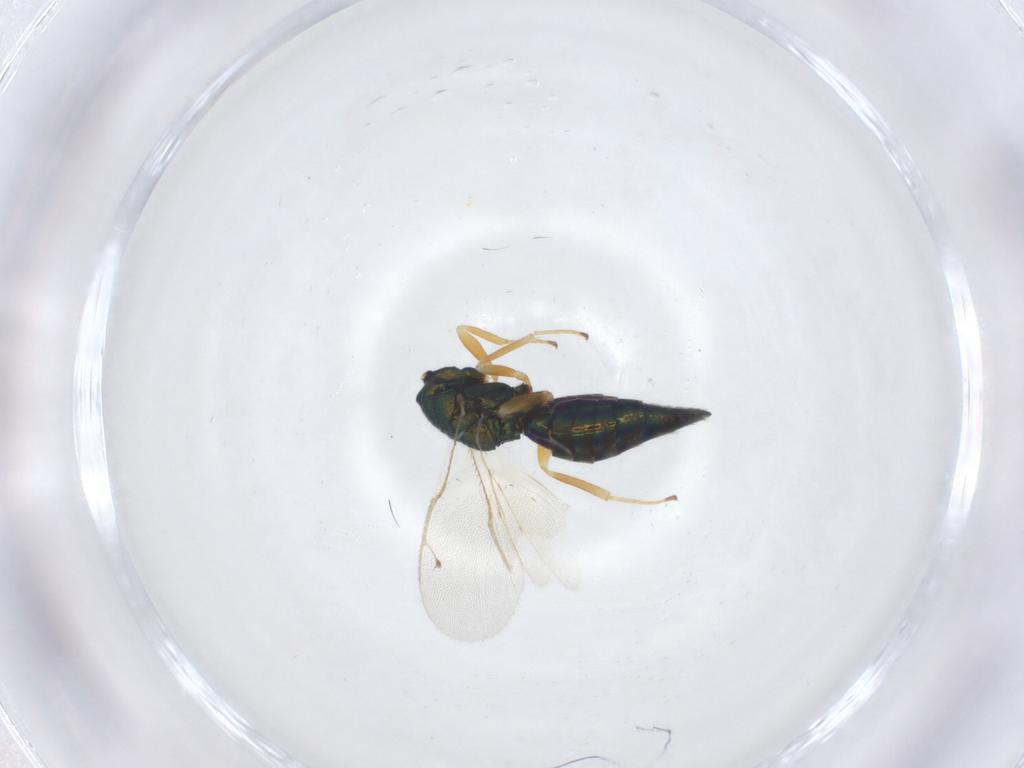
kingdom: Animalia
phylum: Arthropoda
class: Insecta
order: Hymenoptera
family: Pteromalidae
